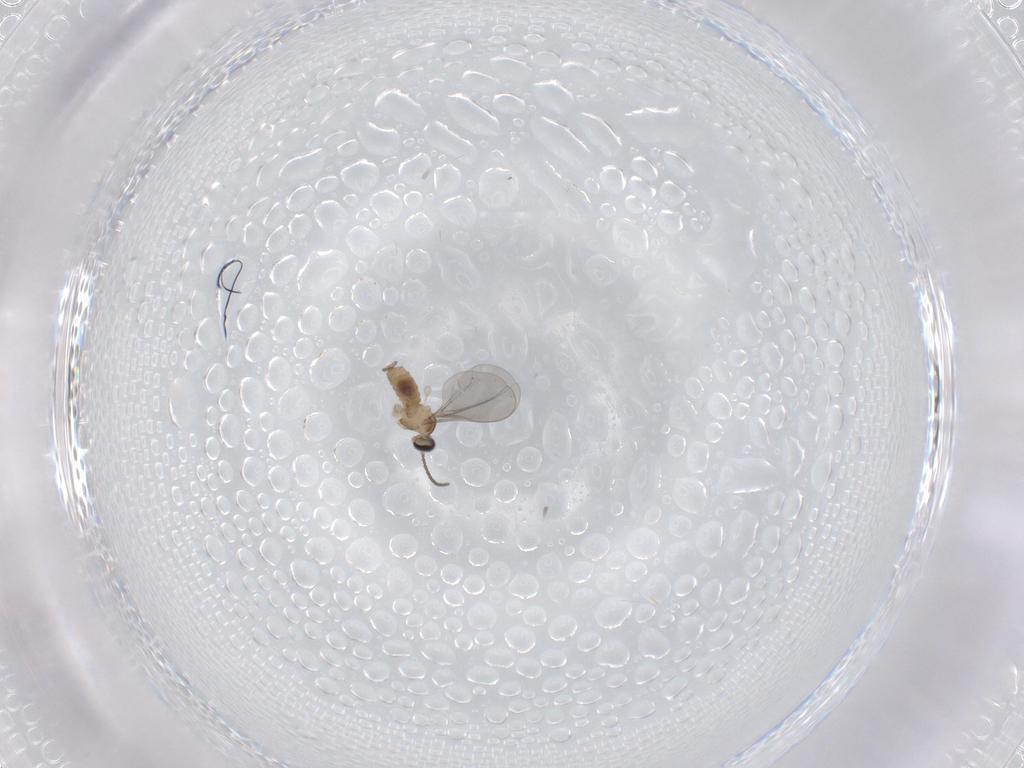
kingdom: Animalia
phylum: Arthropoda
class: Insecta
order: Diptera
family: Cecidomyiidae
